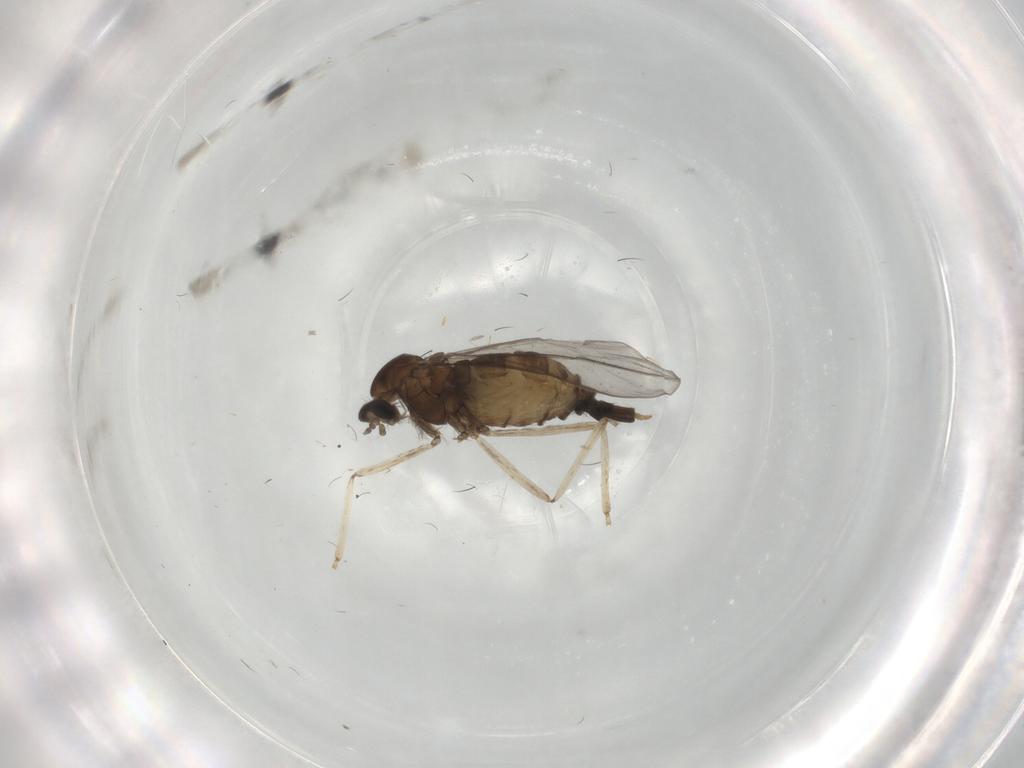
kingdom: Animalia
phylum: Arthropoda
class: Insecta
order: Diptera
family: Cecidomyiidae
